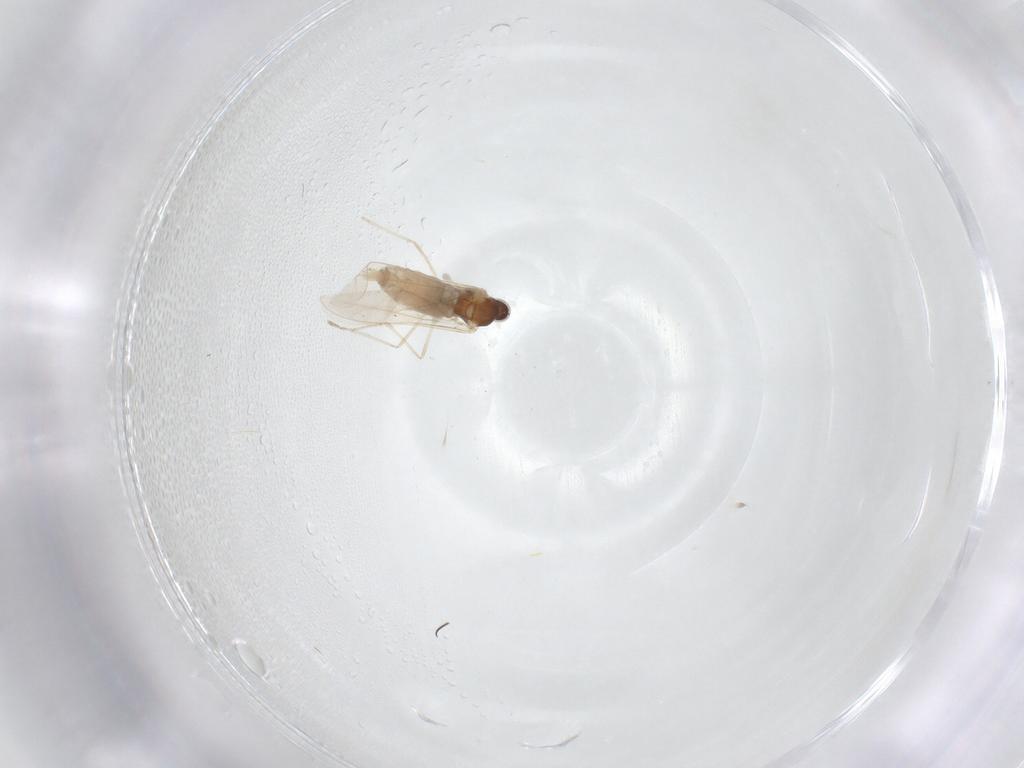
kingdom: Animalia
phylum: Arthropoda
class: Insecta
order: Diptera
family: Cecidomyiidae
